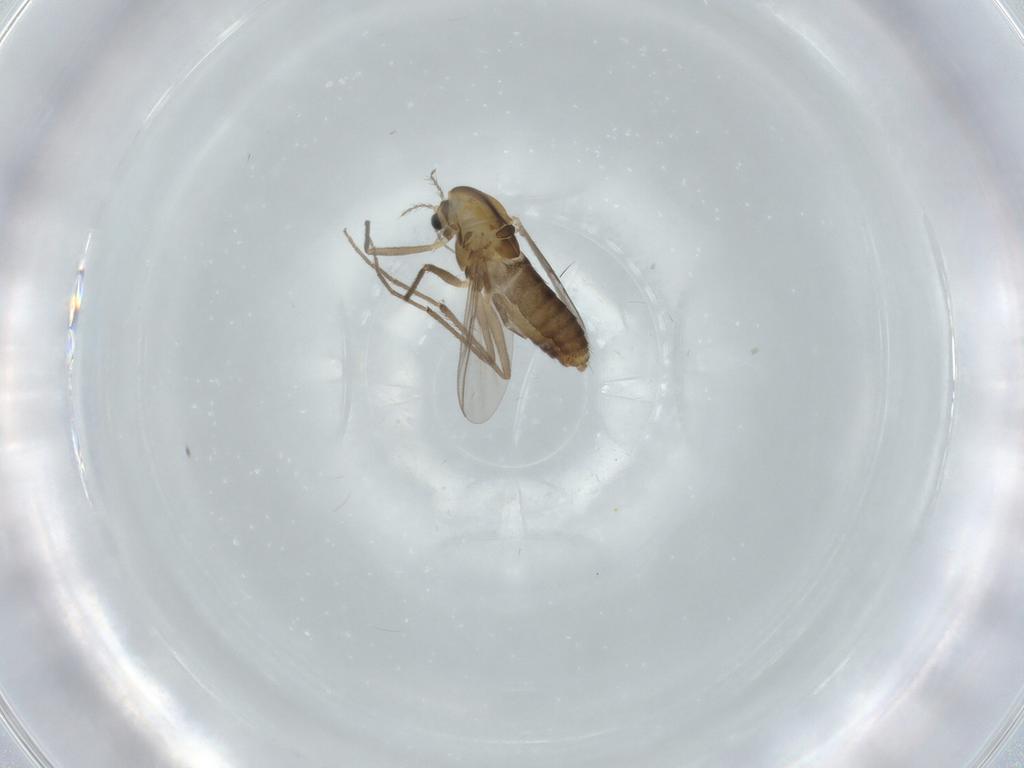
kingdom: Animalia
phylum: Arthropoda
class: Insecta
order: Diptera
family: Chironomidae
